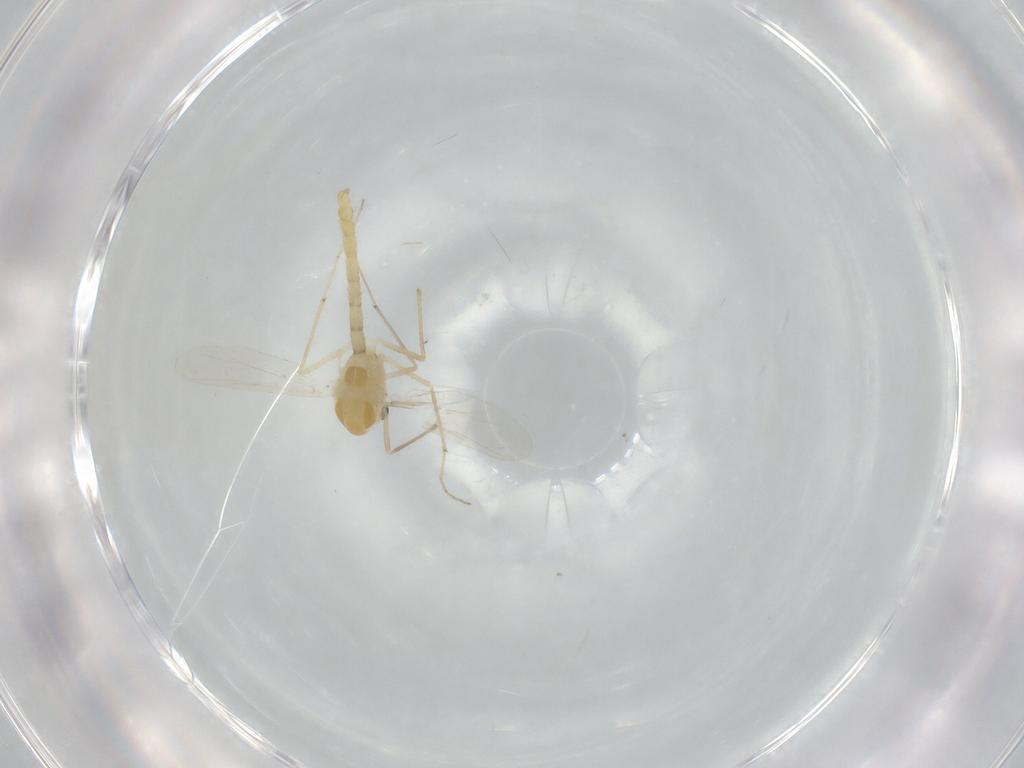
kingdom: Animalia
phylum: Arthropoda
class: Insecta
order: Diptera
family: Chironomidae
